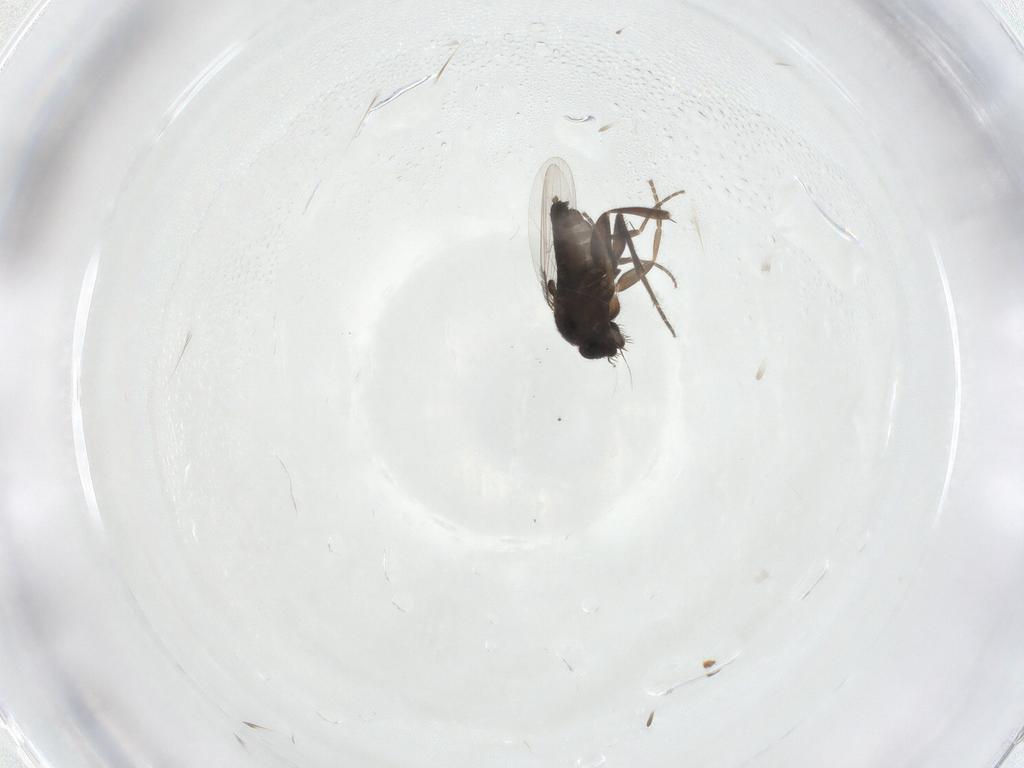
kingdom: Animalia
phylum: Arthropoda
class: Insecta
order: Diptera
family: Phoridae
